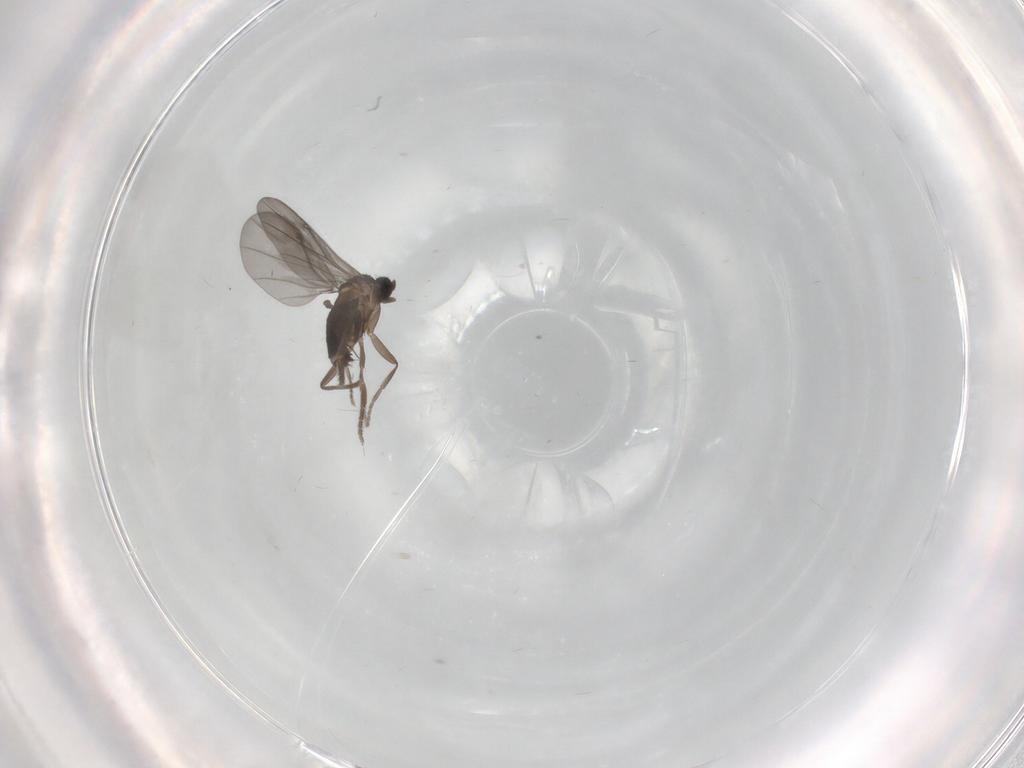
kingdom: Animalia
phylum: Arthropoda
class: Insecta
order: Diptera
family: Phoridae
